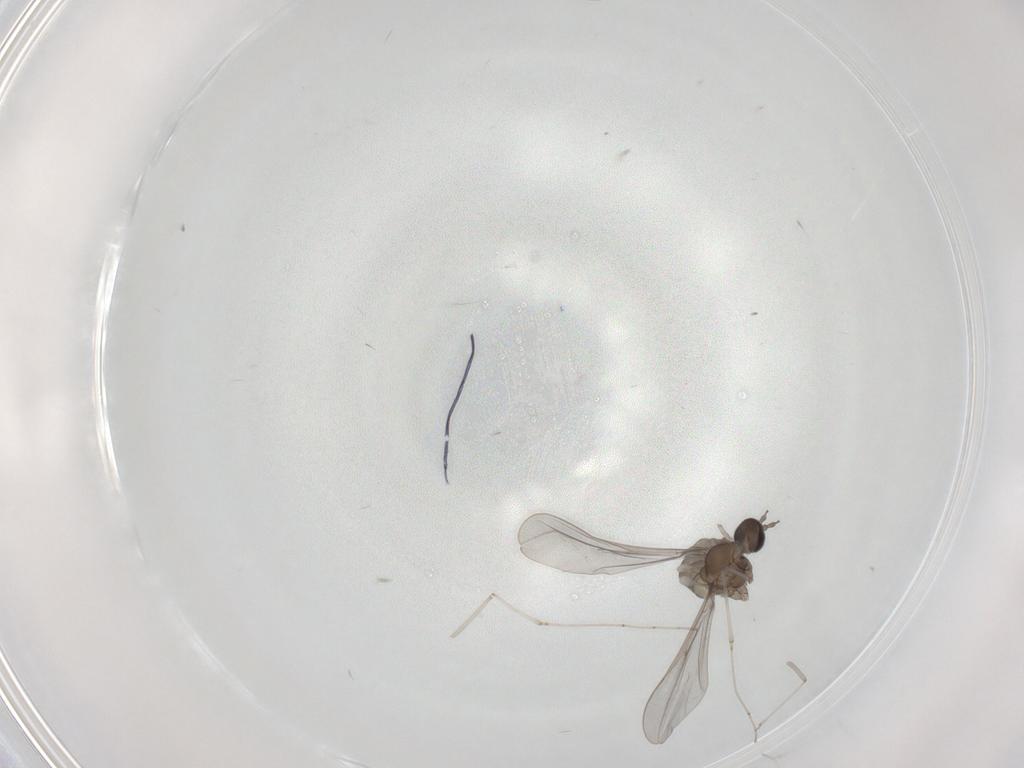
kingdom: Animalia
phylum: Arthropoda
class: Insecta
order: Diptera
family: Cecidomyiidae
